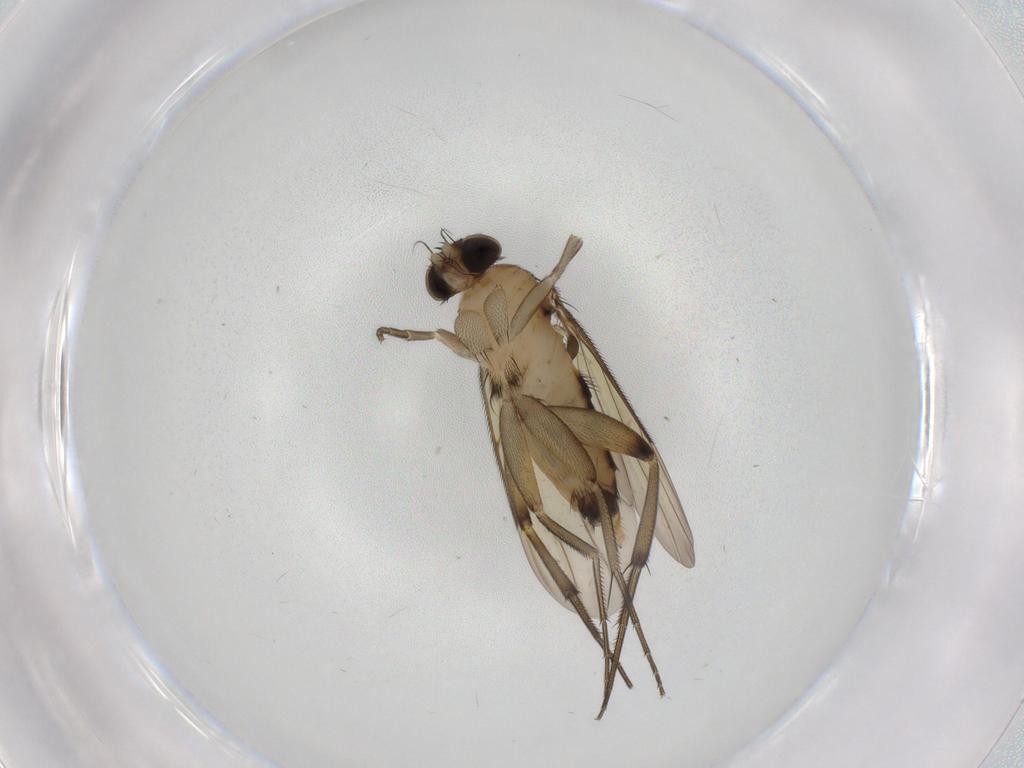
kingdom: Animalia
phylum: Arthropoda
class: Insecta
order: Diptera
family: Phoridae
